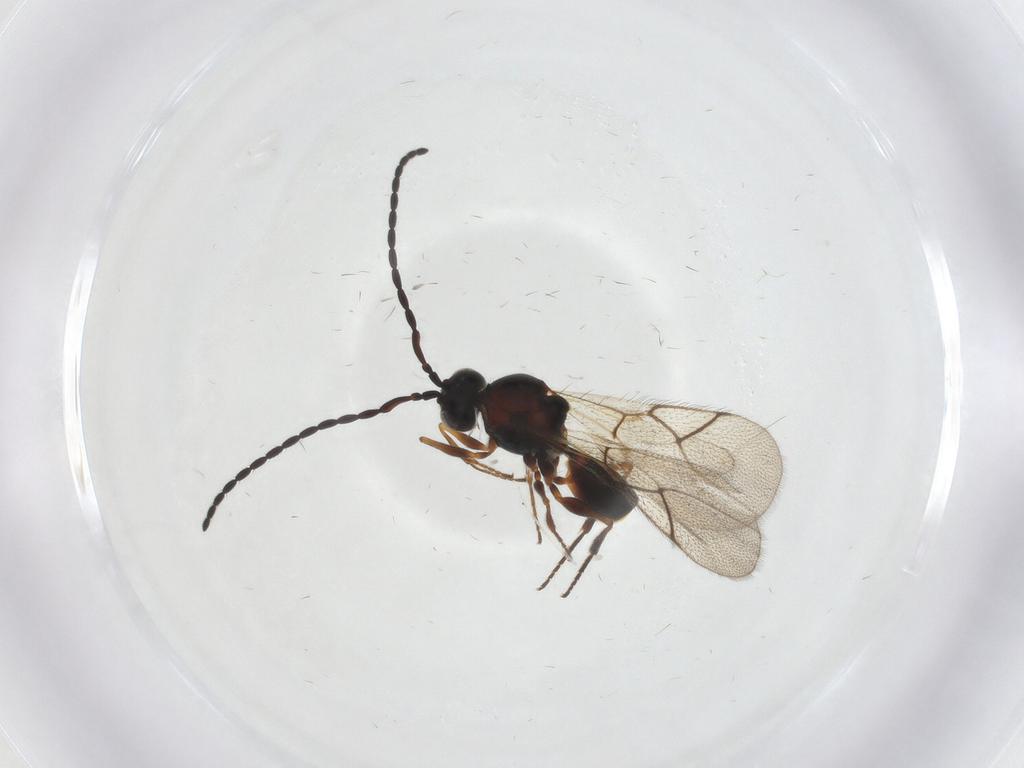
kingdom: Animalia
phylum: Arthropoda
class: Insecta
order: Hymenoptera
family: Figitidae
